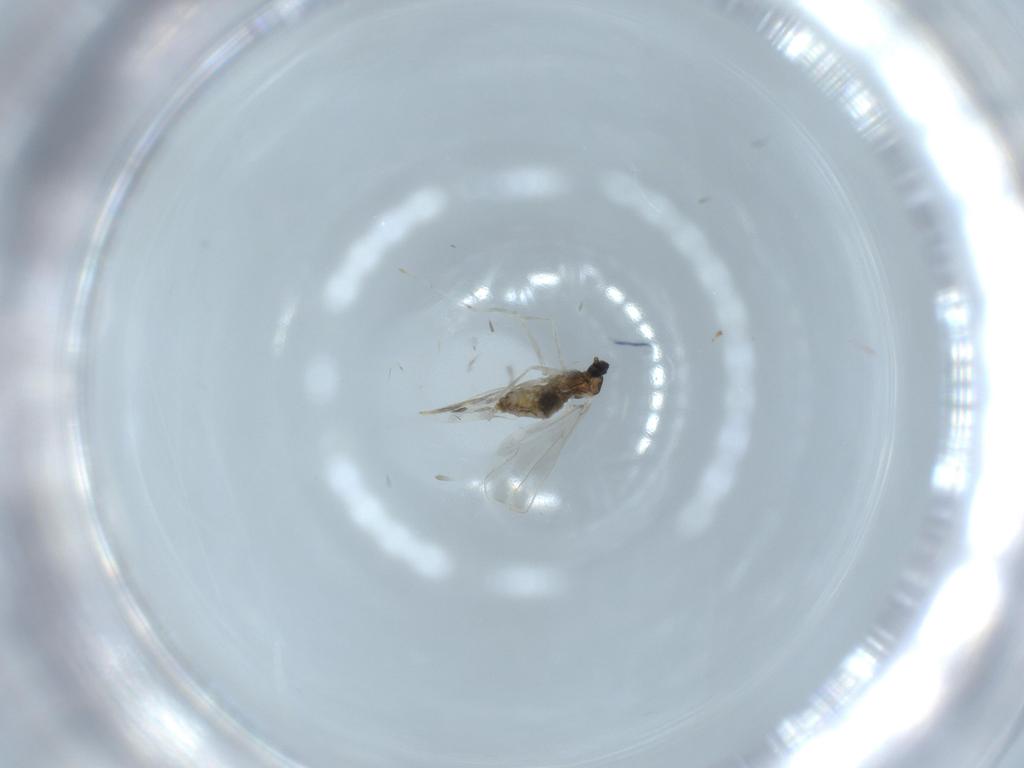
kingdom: Animalia
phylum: Arthropoda
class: Insecta
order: Diptera
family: Cecidomyiidae
